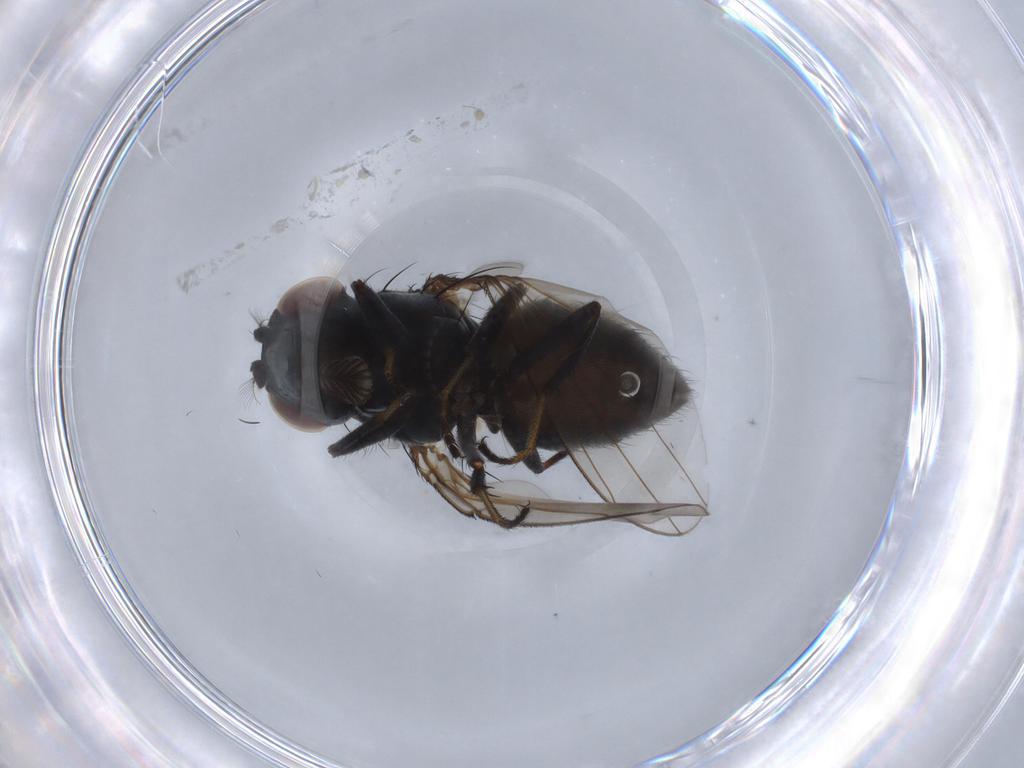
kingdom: Animalia
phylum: Arthropoda
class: Insecta
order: Diptera
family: Ephydridae
